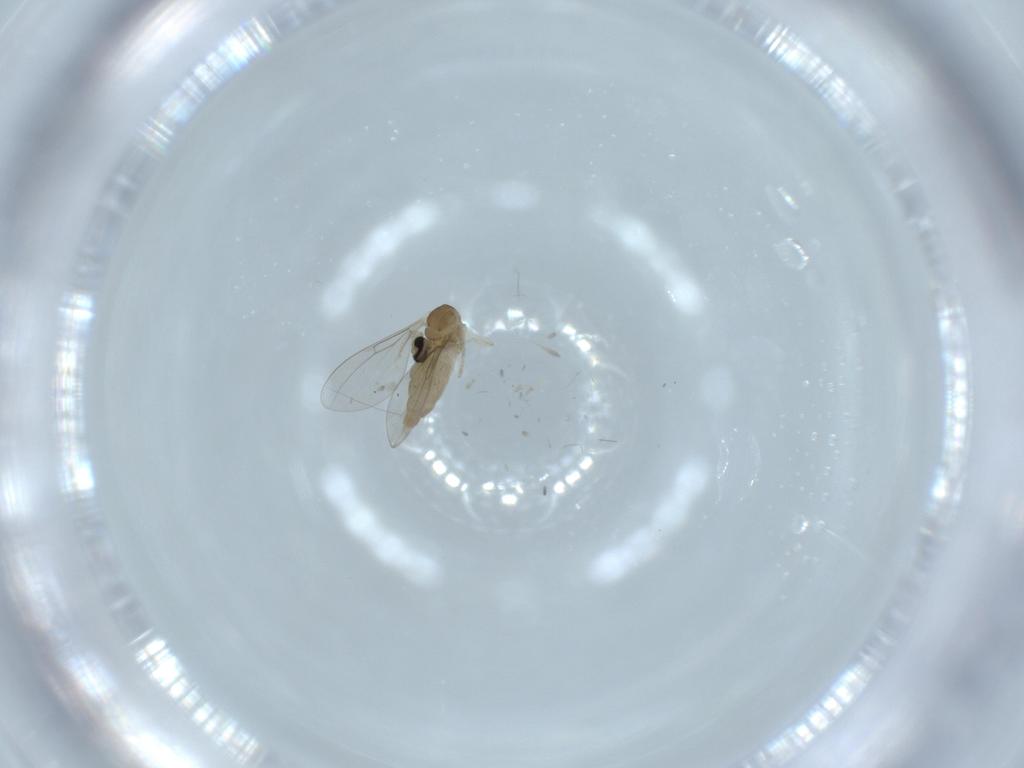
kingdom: Animalia
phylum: Arthropoda
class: Insecta
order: Diptera
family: Cecidomyiidae
